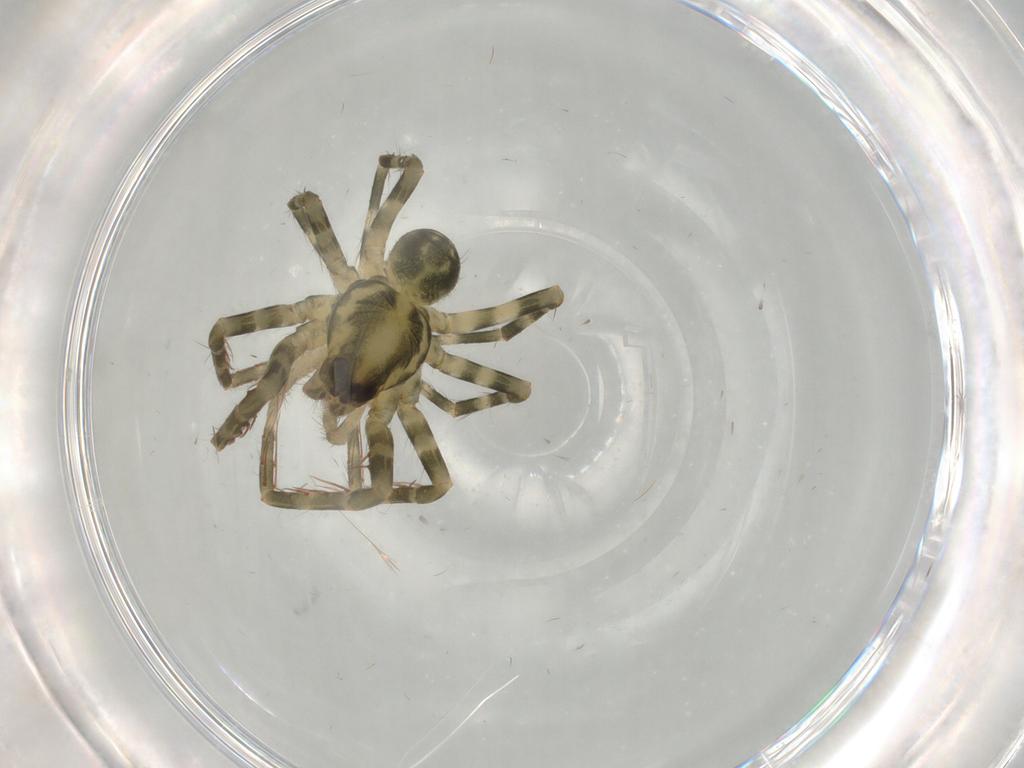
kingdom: Animalia
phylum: Arthropoda
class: Arachnida
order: Araneae
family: Ctenidae
